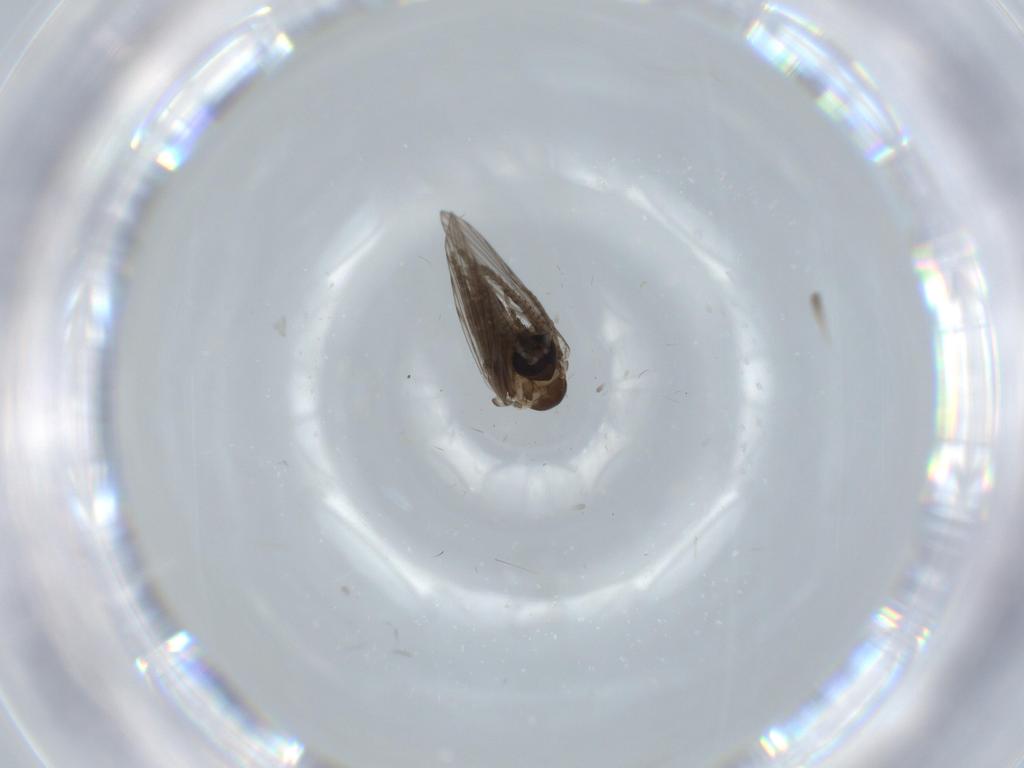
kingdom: Animalia
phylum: Arthropoda
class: Insecta
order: Diptera
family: Psychodidae
